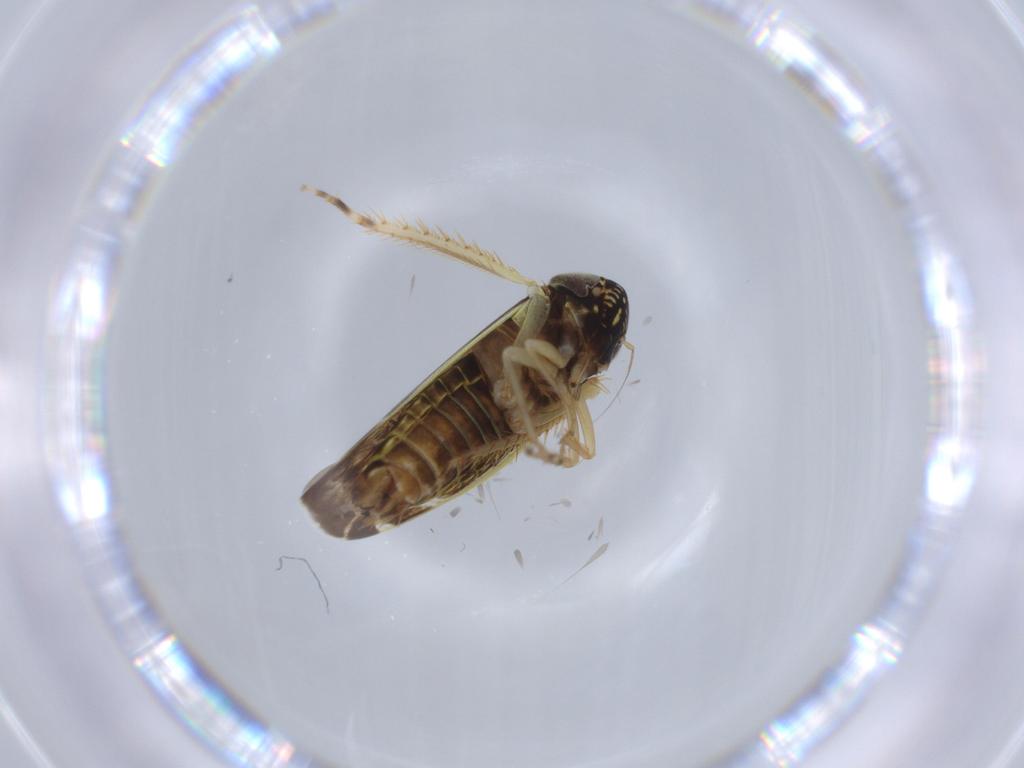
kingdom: Animalia
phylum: Arthropoda
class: Insecta
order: Hemiptera
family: Cicadellidae
